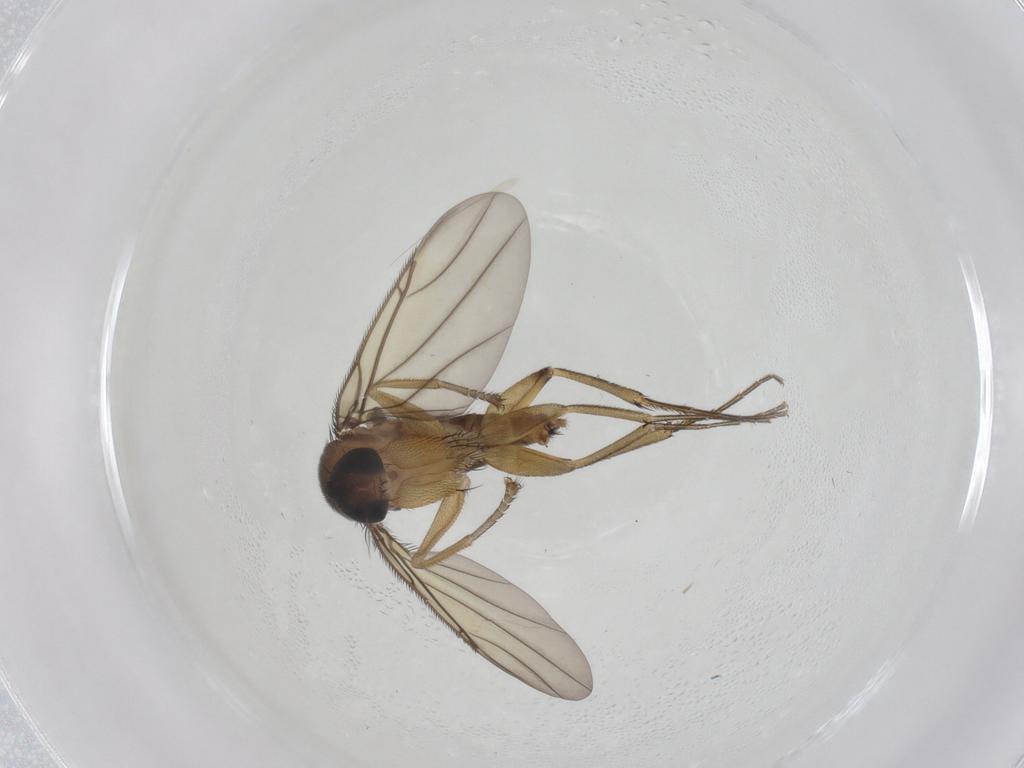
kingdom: Animalia
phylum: Arthropoda
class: Insecta
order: Diptera
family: Phoridae
